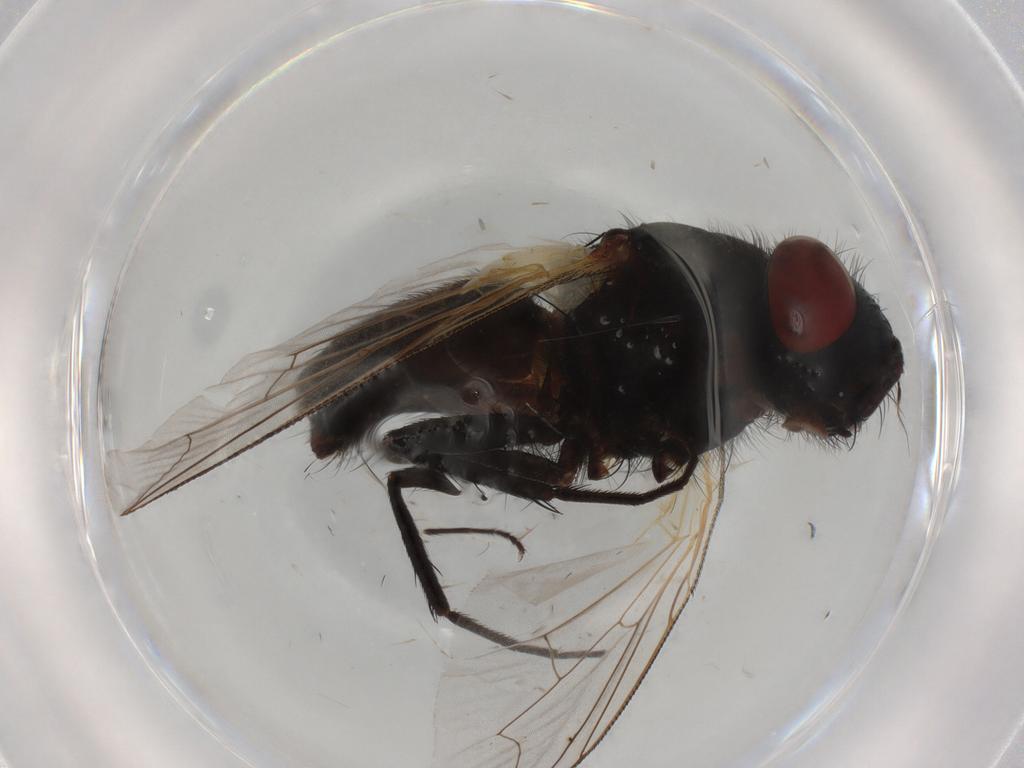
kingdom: Animalia
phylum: Arthropoda
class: Insecta
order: Diptera
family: Sarcophagidae
